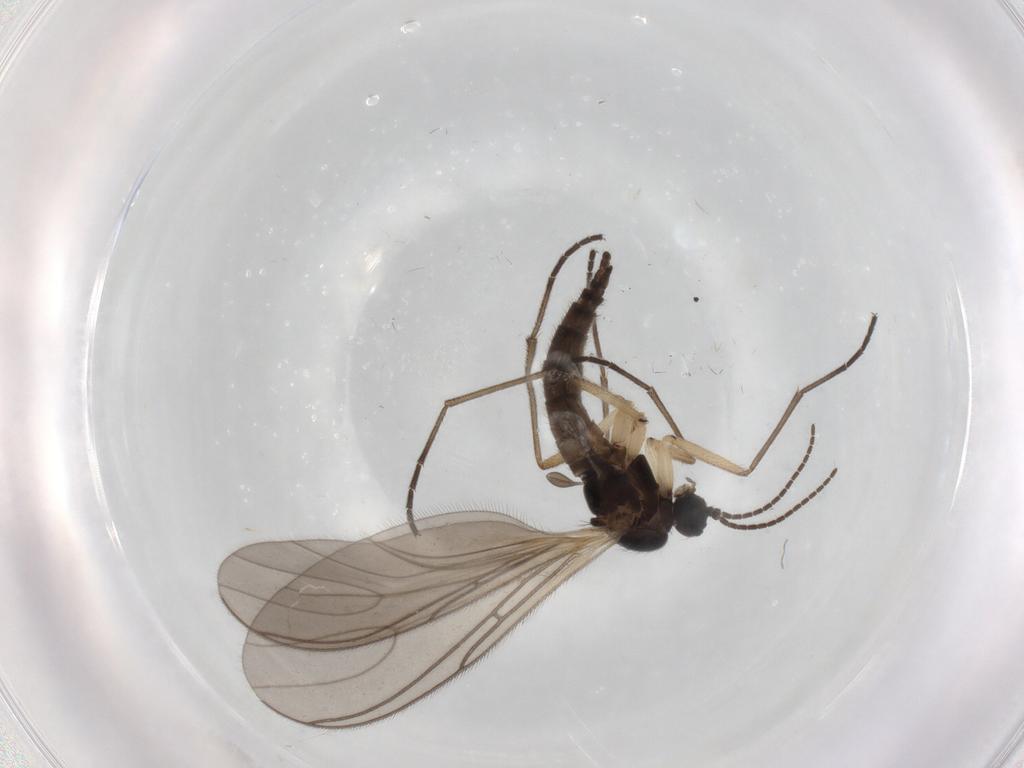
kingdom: Animalia
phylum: Arthropoda
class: Insecta
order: Diptera
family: Sciaridae
